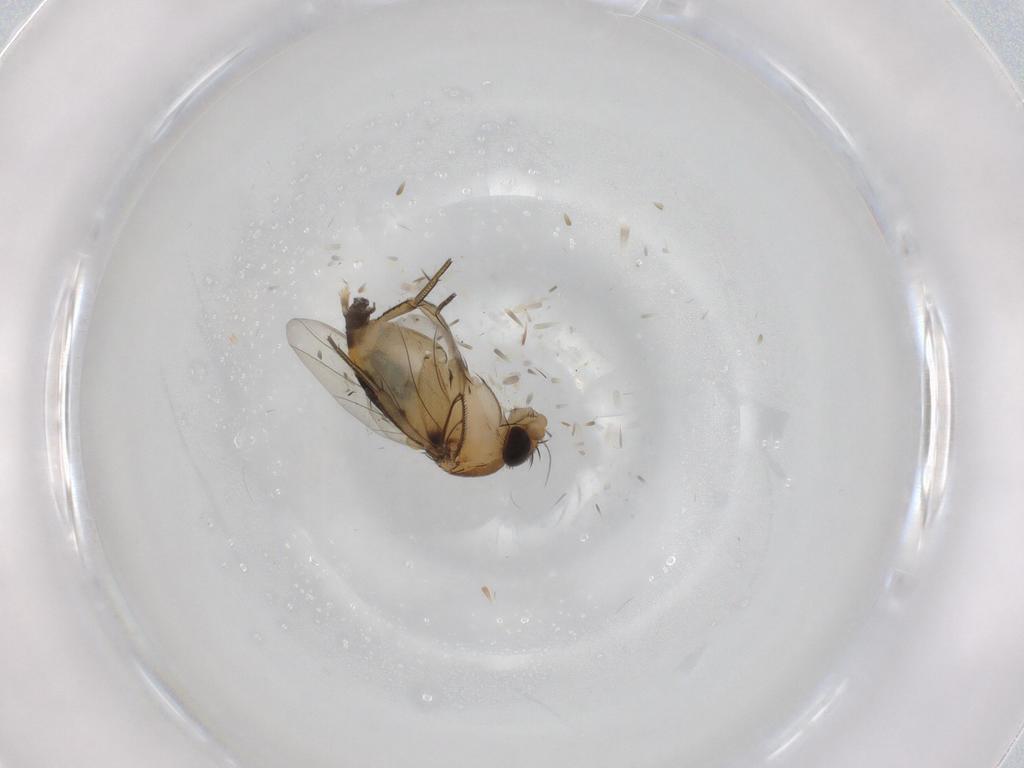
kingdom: Animalia
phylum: Arthropoda
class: Insecta
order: Diptera
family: Phoridae
